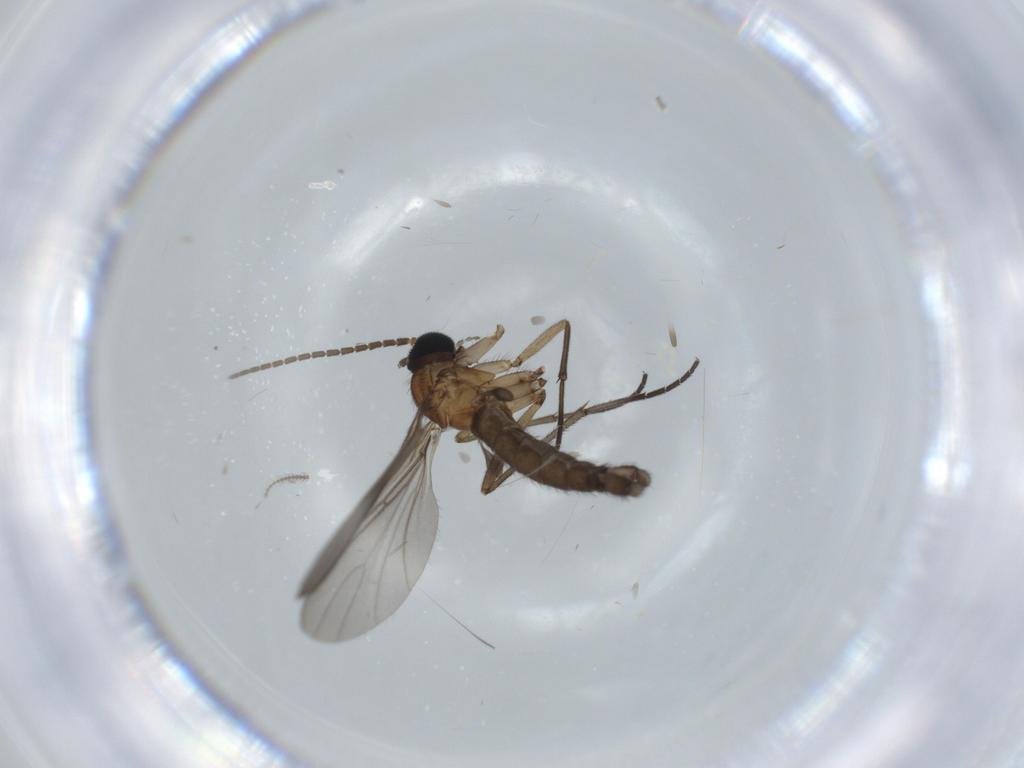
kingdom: Animalia
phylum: Arthropoda
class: Insecta
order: Diptera
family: Sciaridae
